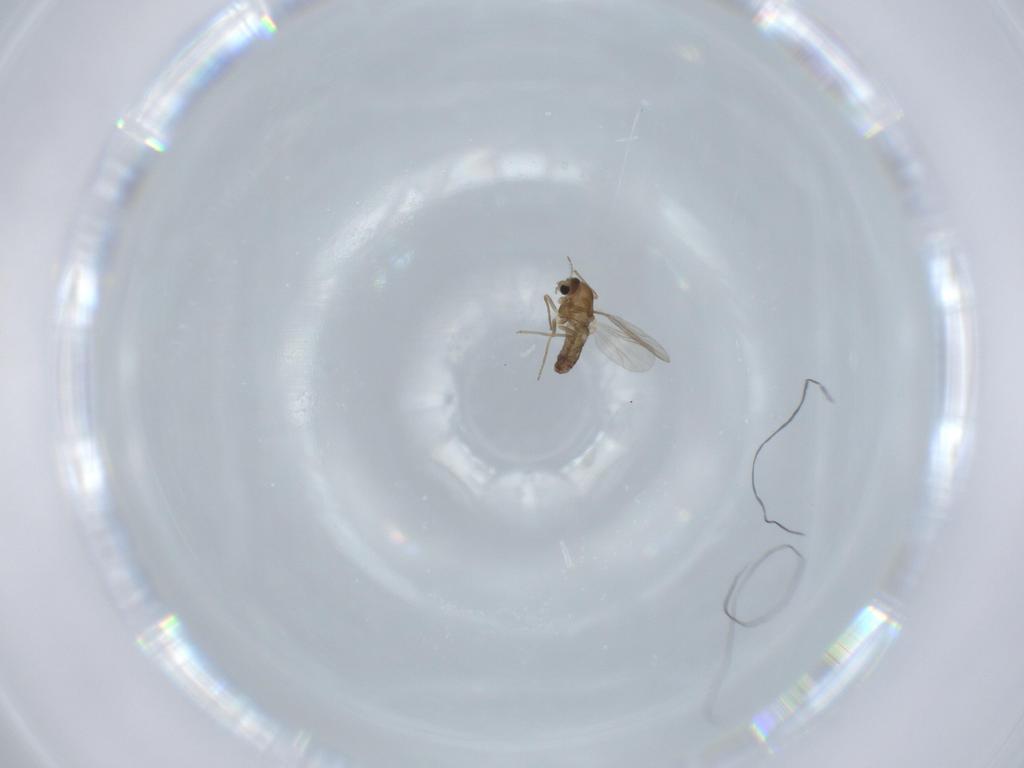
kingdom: Animalia
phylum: Arthropoda
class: Insecta
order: Diptera
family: Chironomidae
